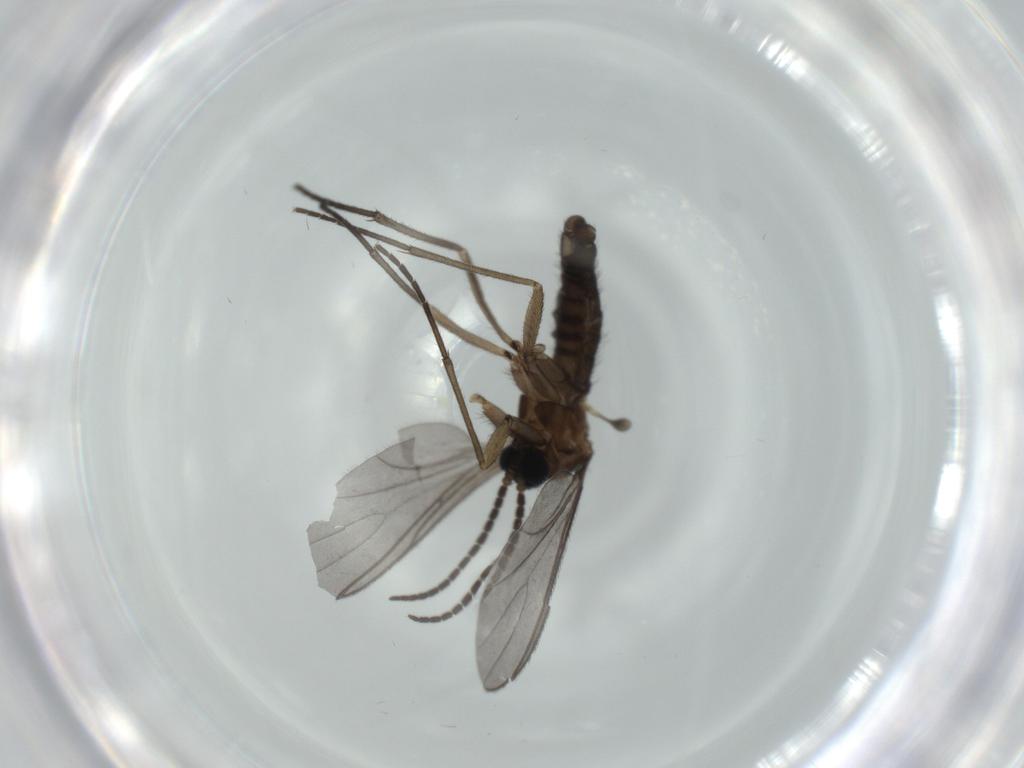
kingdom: Animalia
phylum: Arthropoda
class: Insecta
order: Diptera
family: Sciaridae
